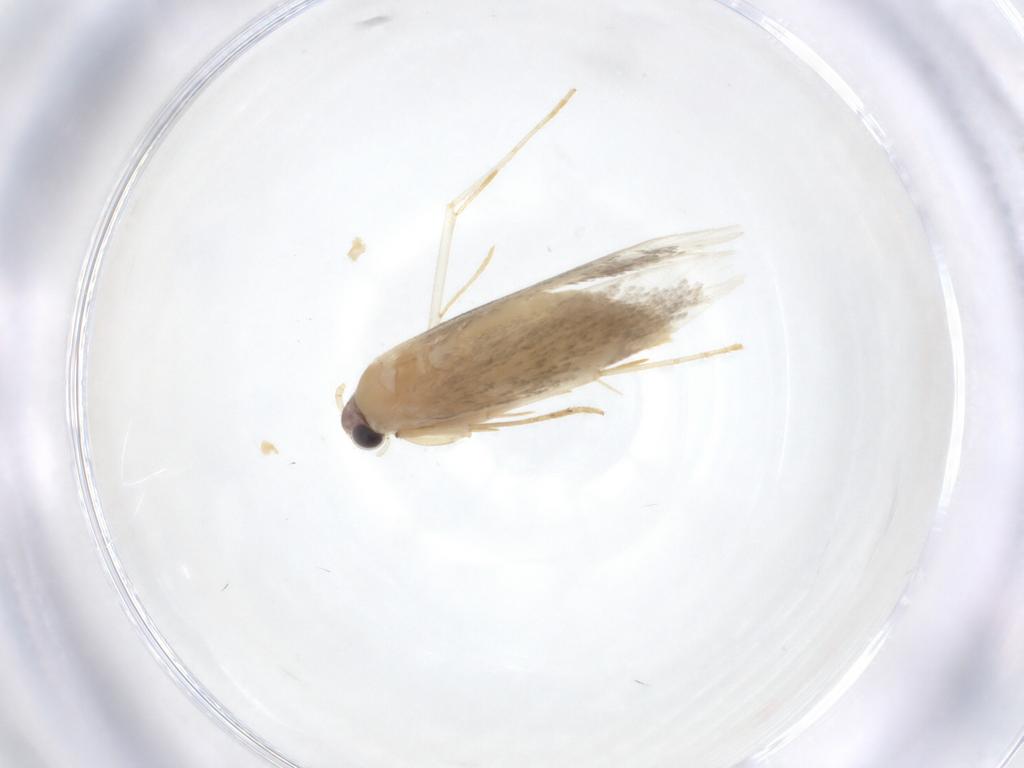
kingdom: Animalia
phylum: Arthropoda
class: Insecta
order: Lepidoptera
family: Tineidae
